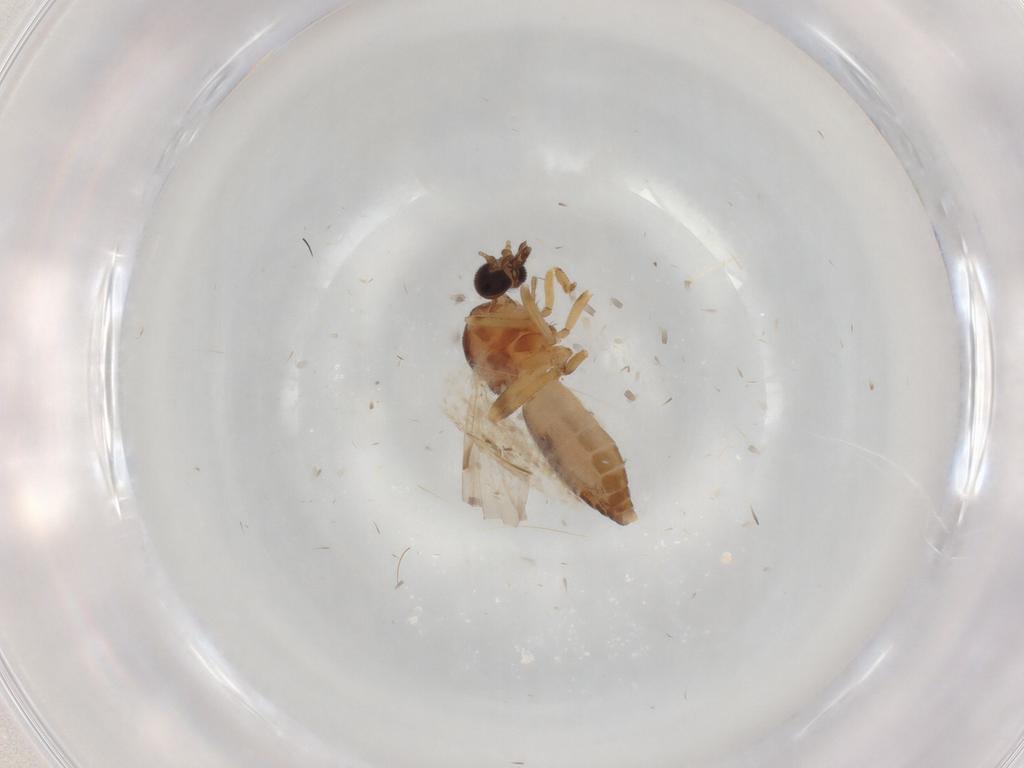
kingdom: Animalia
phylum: Arthropoda
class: Insecta
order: Diptera
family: Ceratopogonidae
